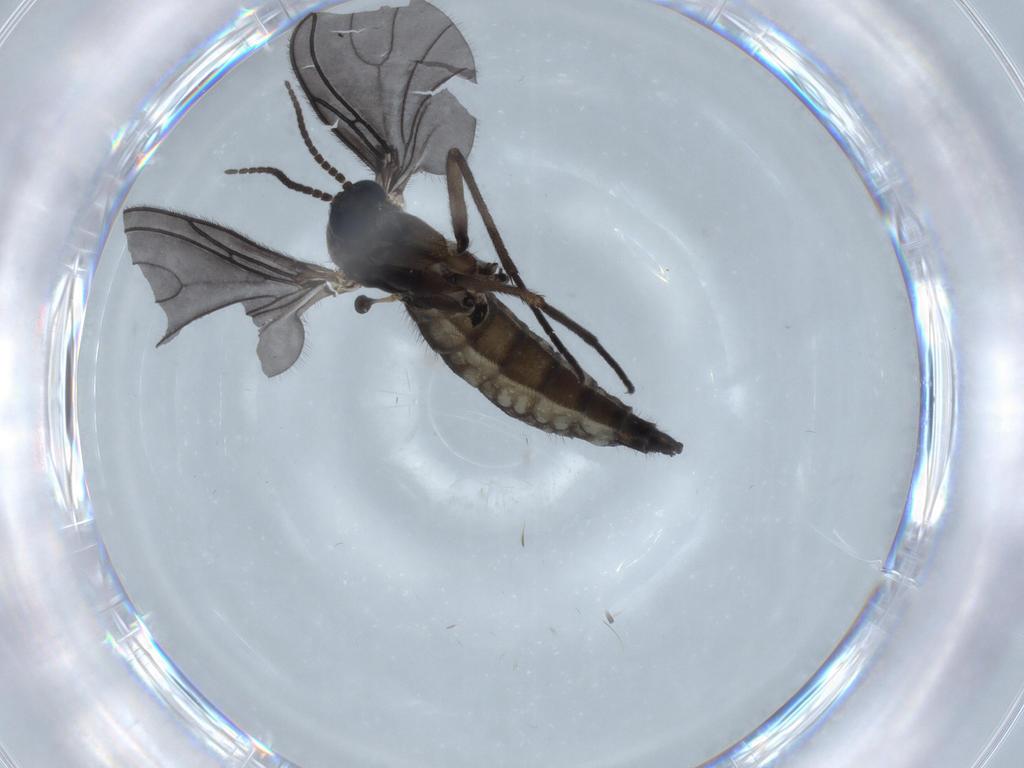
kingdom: Animalia
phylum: Arthropoda
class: Insecta
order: Diptera
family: Sciaridae
